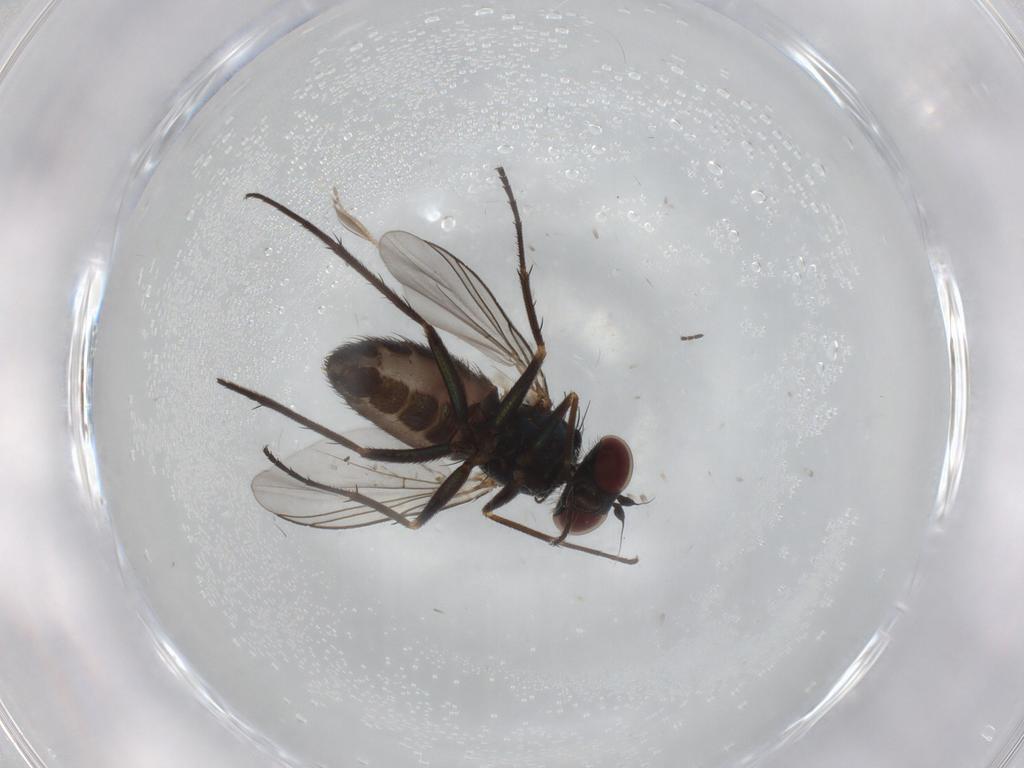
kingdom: Animalia
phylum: Arthropoda
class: Insecta
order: Diptera
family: Dolichopodidae
